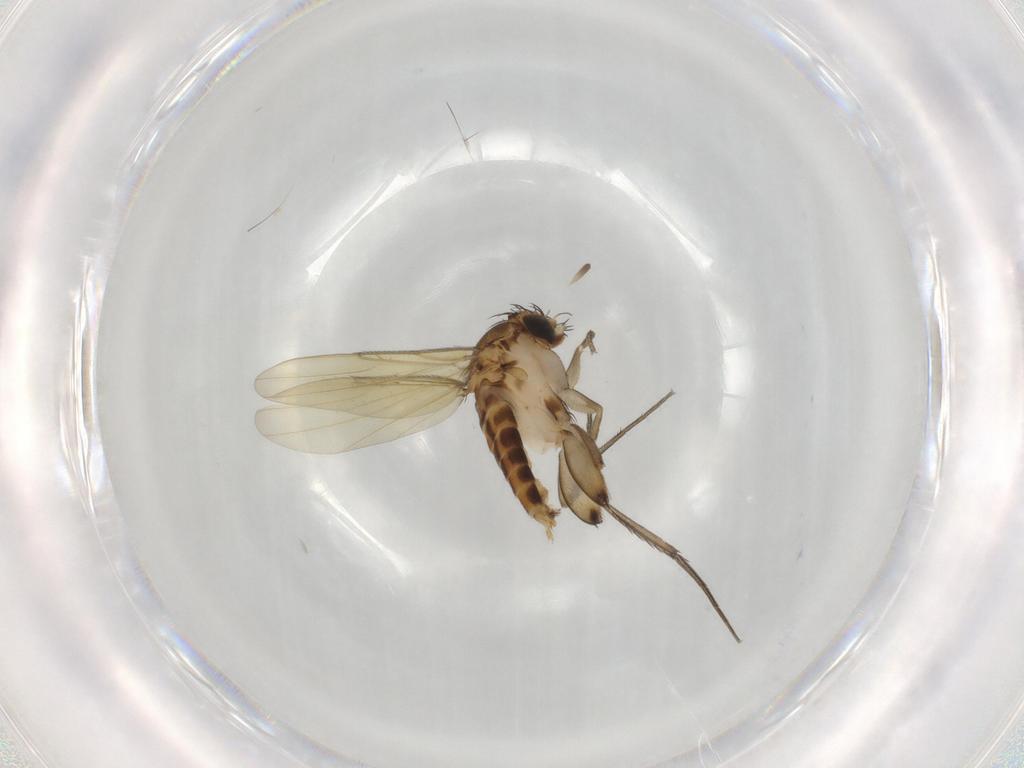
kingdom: Animalia
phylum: Arthropoda
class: Insecta
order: Diptera
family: Phoridae
